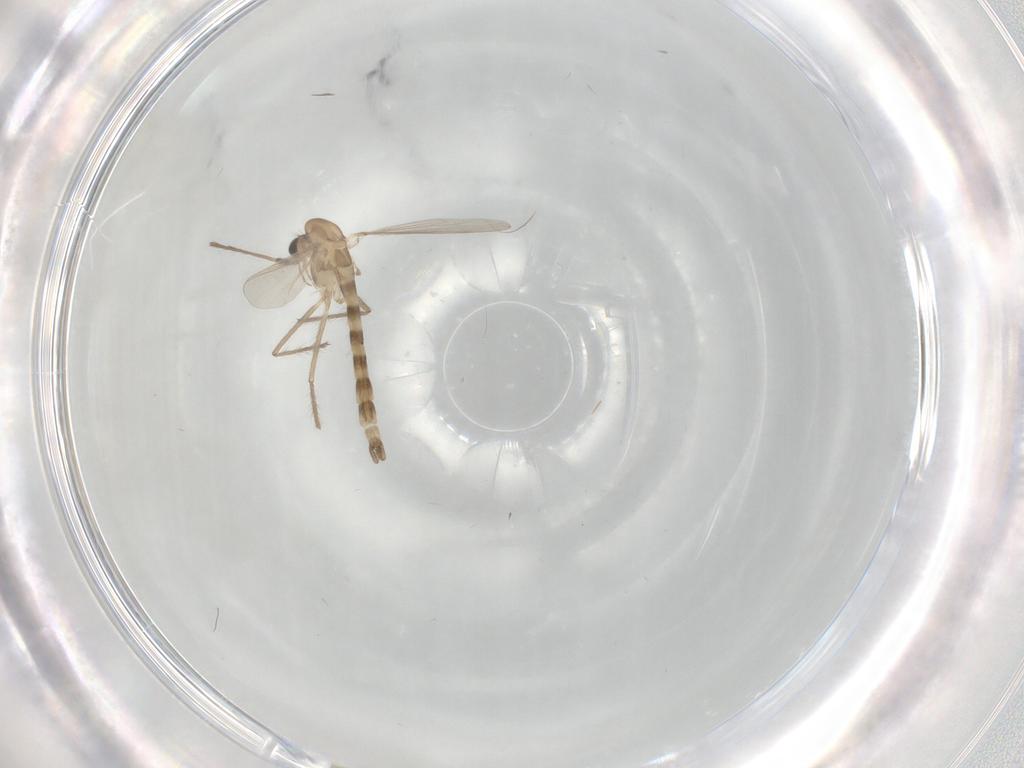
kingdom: Animalia
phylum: Arthropoda
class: Insecta
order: Diptera
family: Chironomidae
